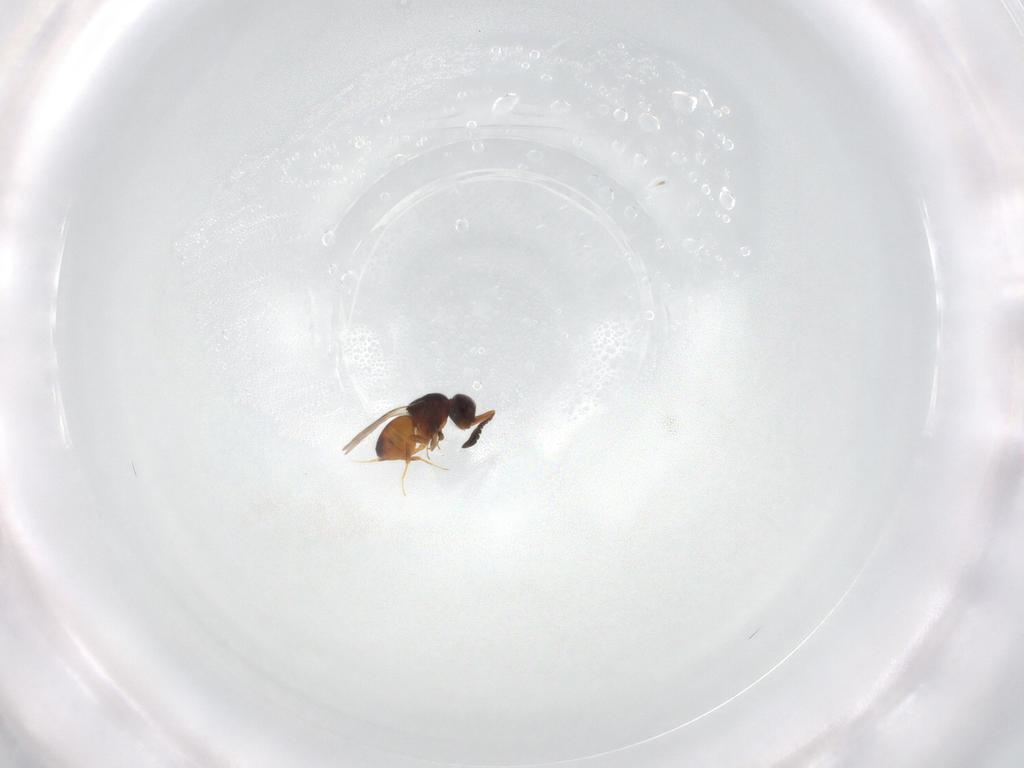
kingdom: Animalia
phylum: Arthropoda
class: Insecta
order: Hymenoptera
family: Ceraphronidae
